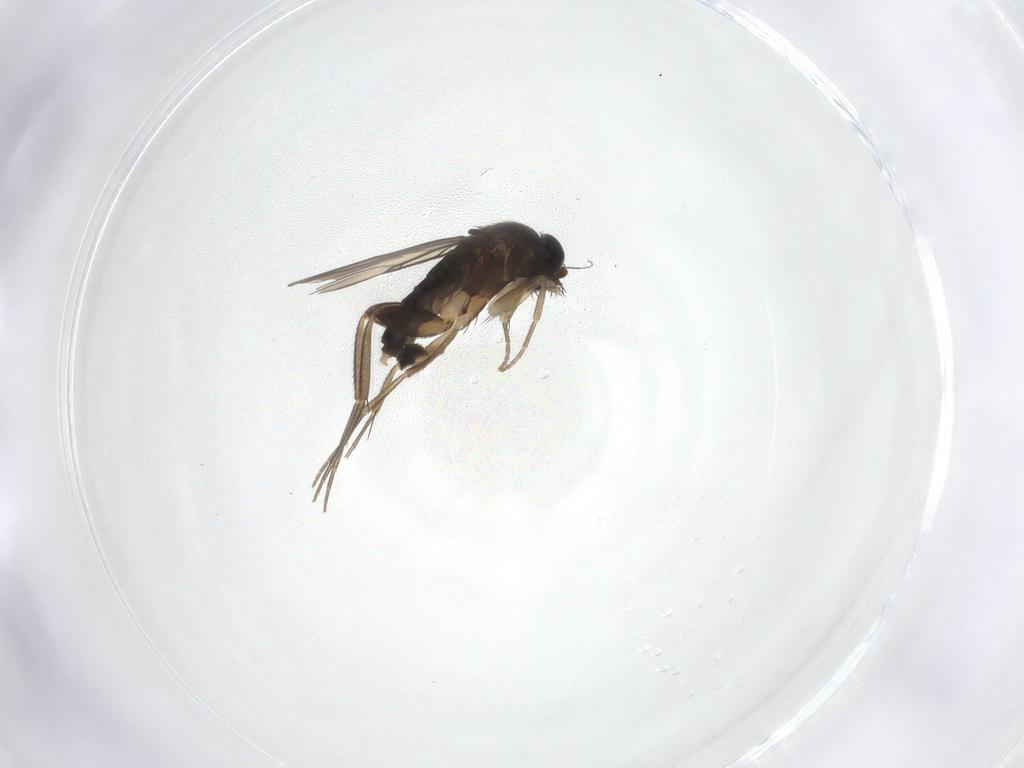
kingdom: Animalia
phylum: Arthropoda
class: Insecta
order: Diptera
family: Phoridae
